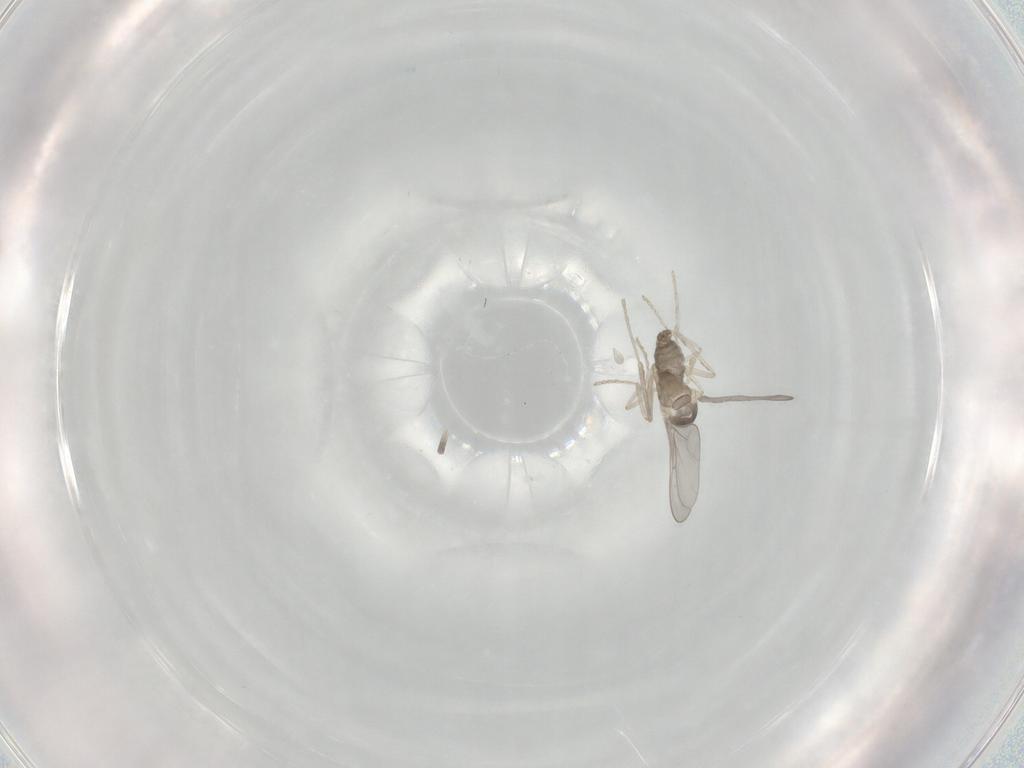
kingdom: Animalia
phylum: Arthropoda
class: Insecta
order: Diptera
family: Cecidomyiidae
